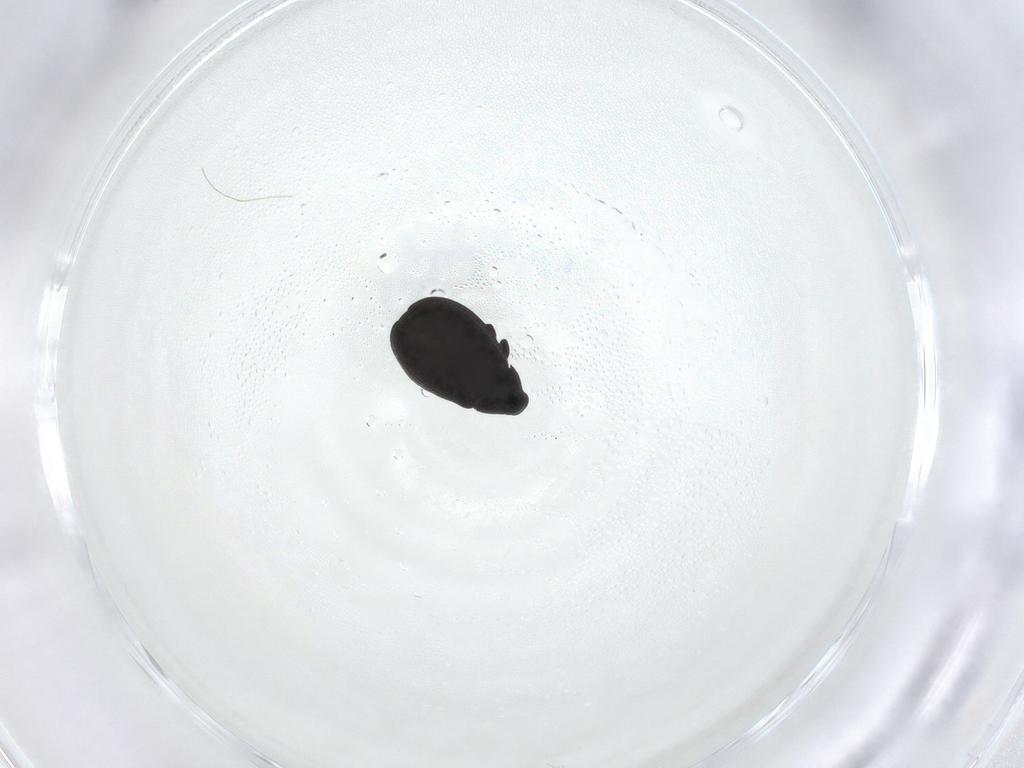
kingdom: Animalia
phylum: Arthropoda
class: Insecta
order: Coleoptera
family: Curculionidae
